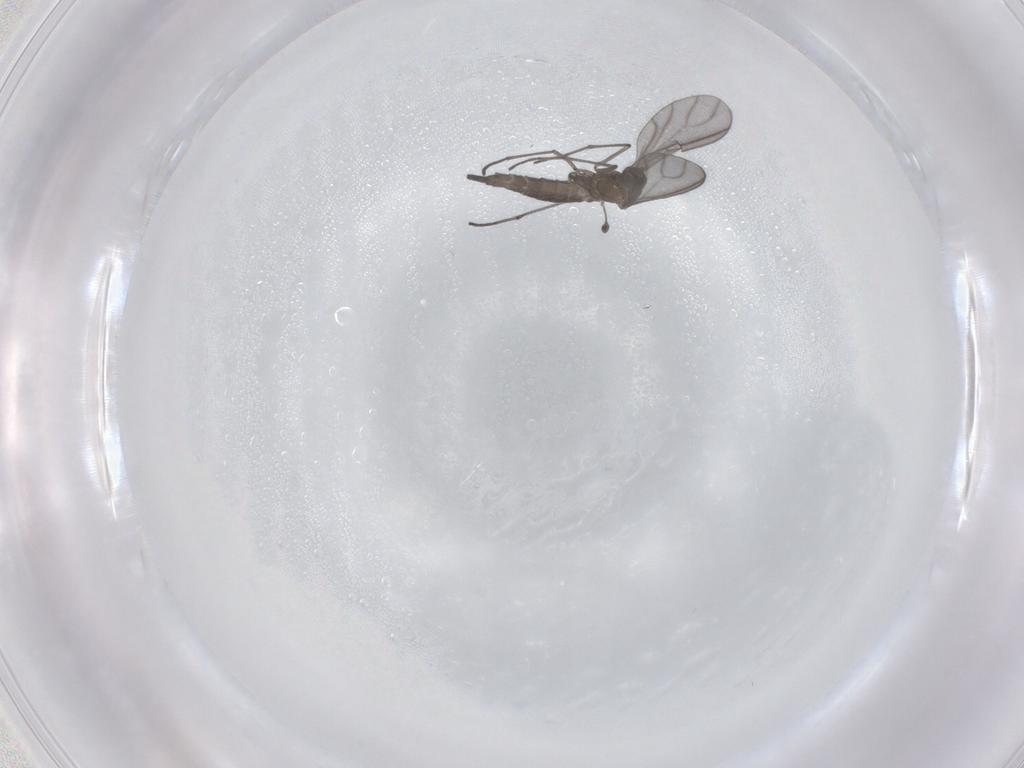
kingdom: Animalia
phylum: Arthropoda
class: Insecta
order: Diptera
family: Sciaridae
